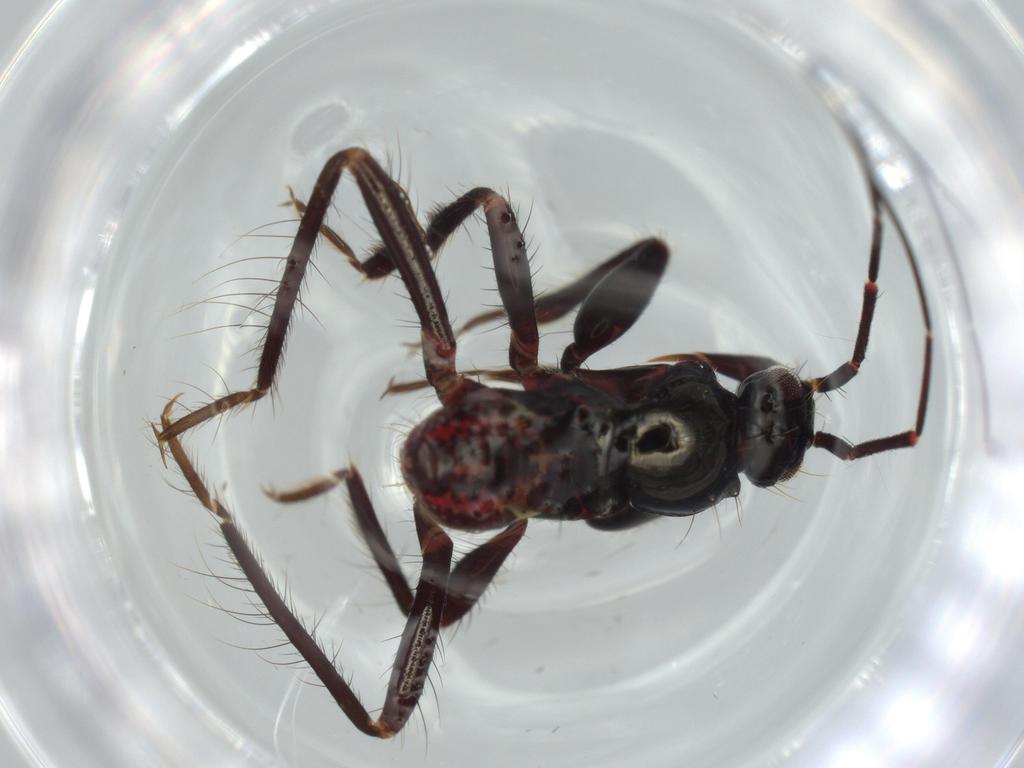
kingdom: Animalia
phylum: Arthropoda
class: Insecta
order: Hemiptera
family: Reduviidae
